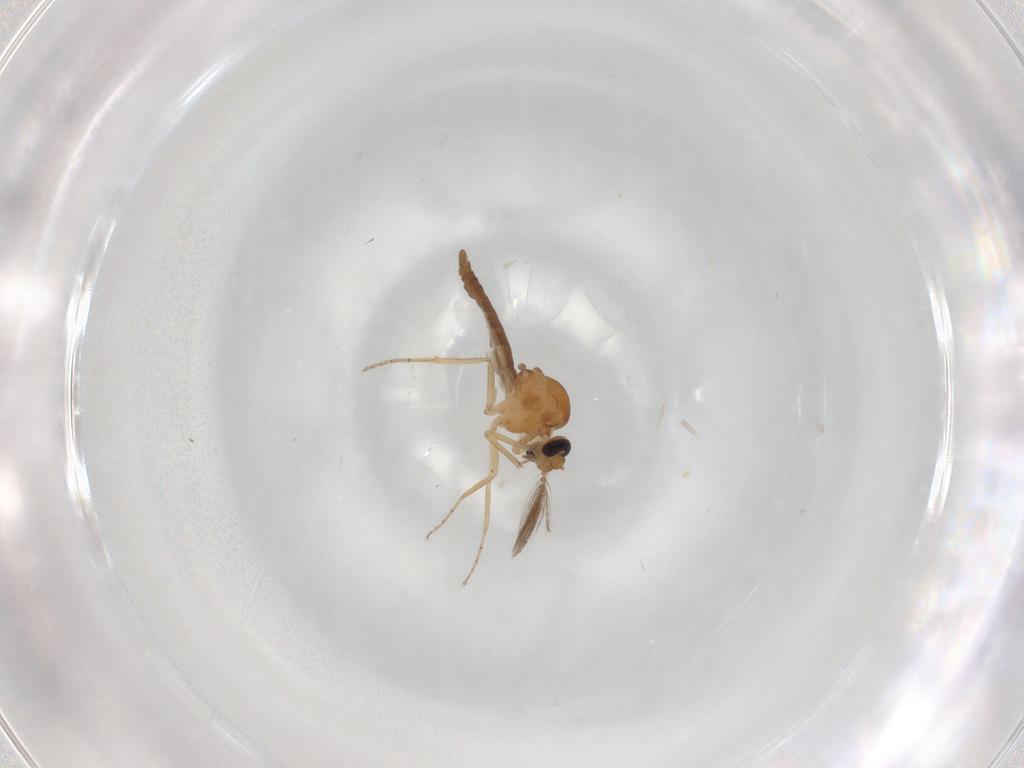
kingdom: Animalia
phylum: Arthropoda
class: Insecta
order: Diptera
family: Ceratopogonidae
